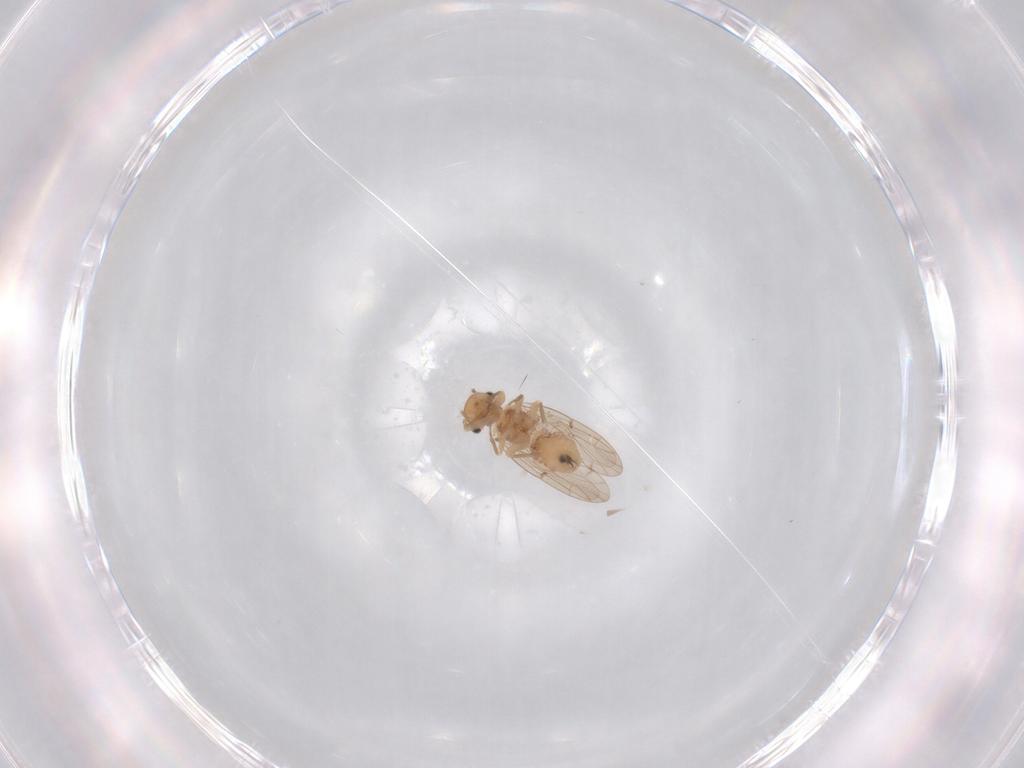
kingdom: Animalia
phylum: Arthropoda
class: Insecta
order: Psocodea
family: Ectopsocidae
